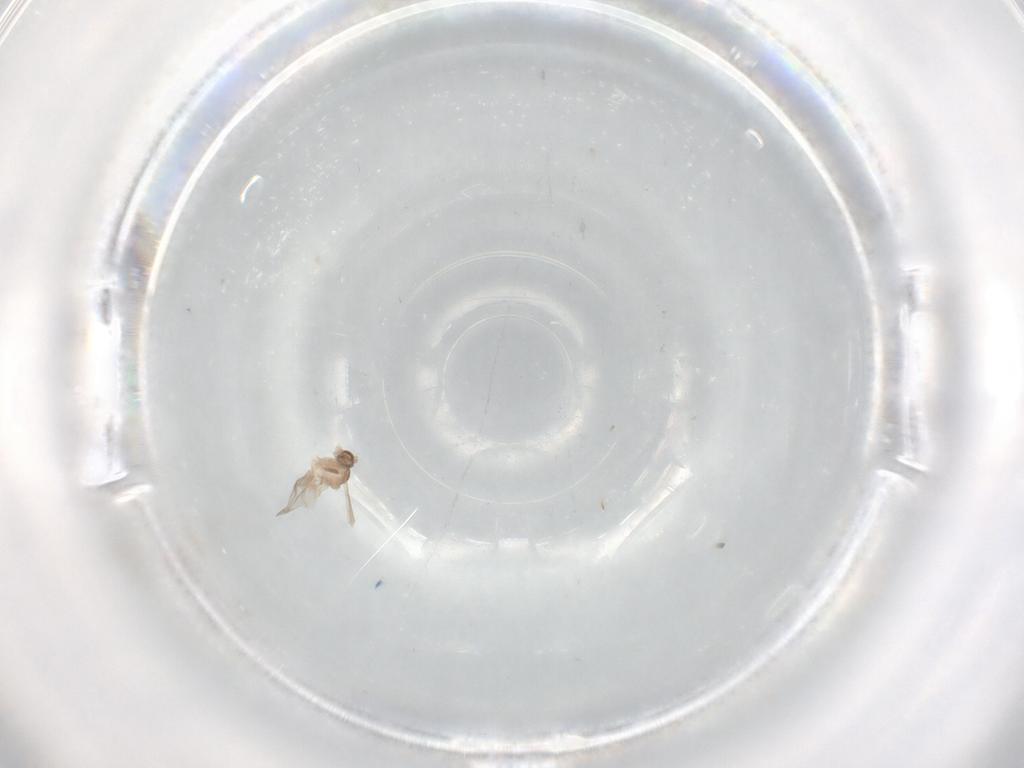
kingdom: Animalia
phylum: Arthropoda
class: Insecta
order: Diptera
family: Cecidomyiidae
